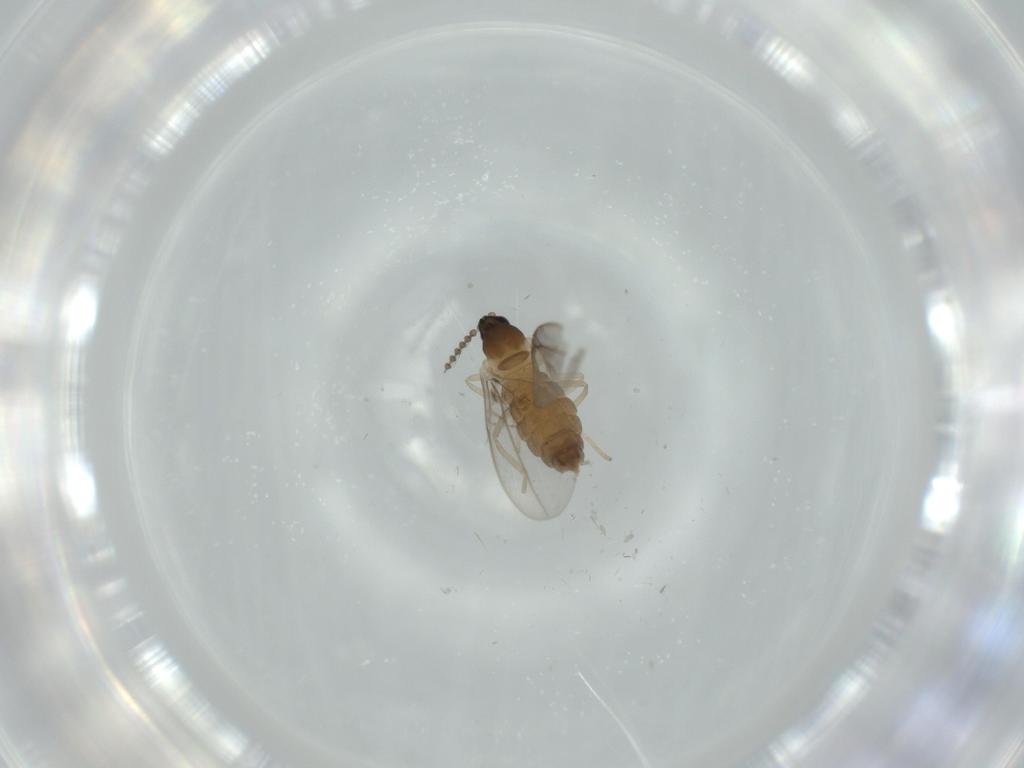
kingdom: Animalia
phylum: Arthropoda
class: Insecta
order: Diptera
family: Cecidomyiidae
